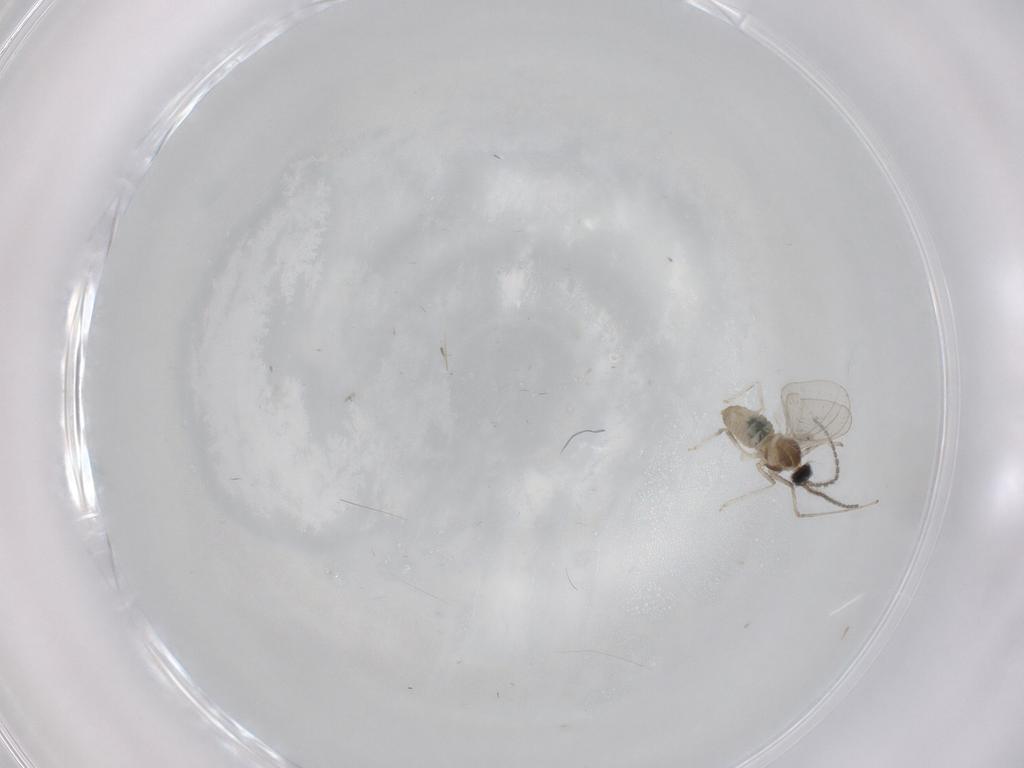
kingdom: Animalia
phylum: Arthropoda
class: Insecta
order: Diptera
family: Cecidomyiidae
